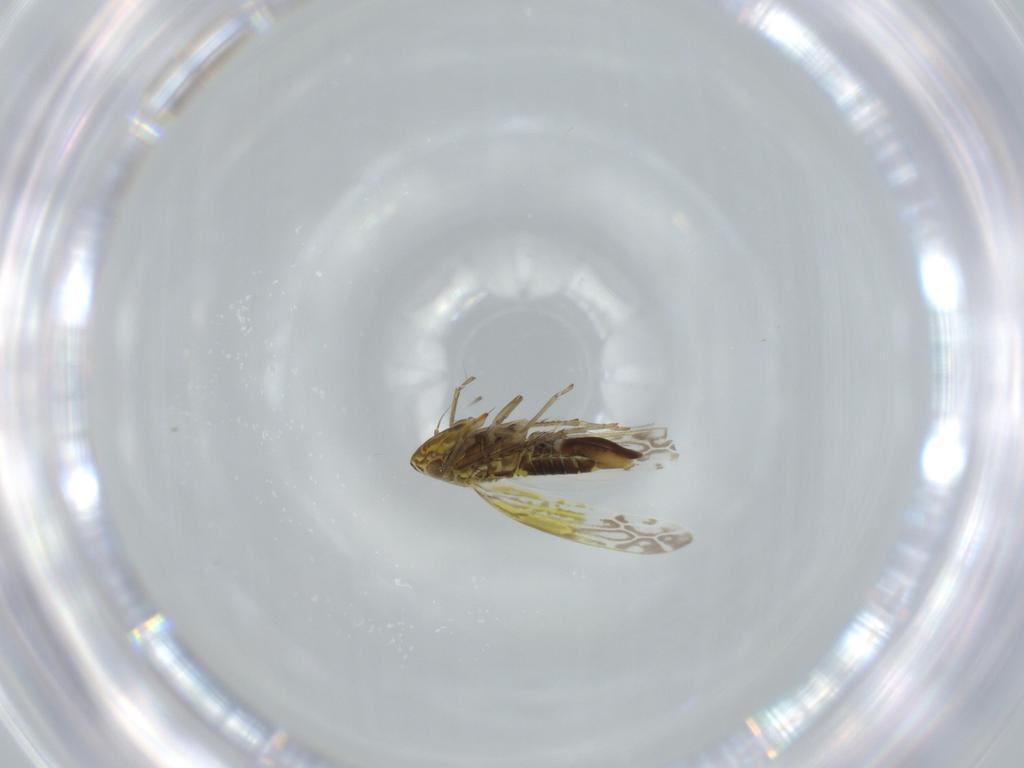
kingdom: Animalia
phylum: Arthropoda
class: Insecta
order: Hemiptera
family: Cicadellidae
